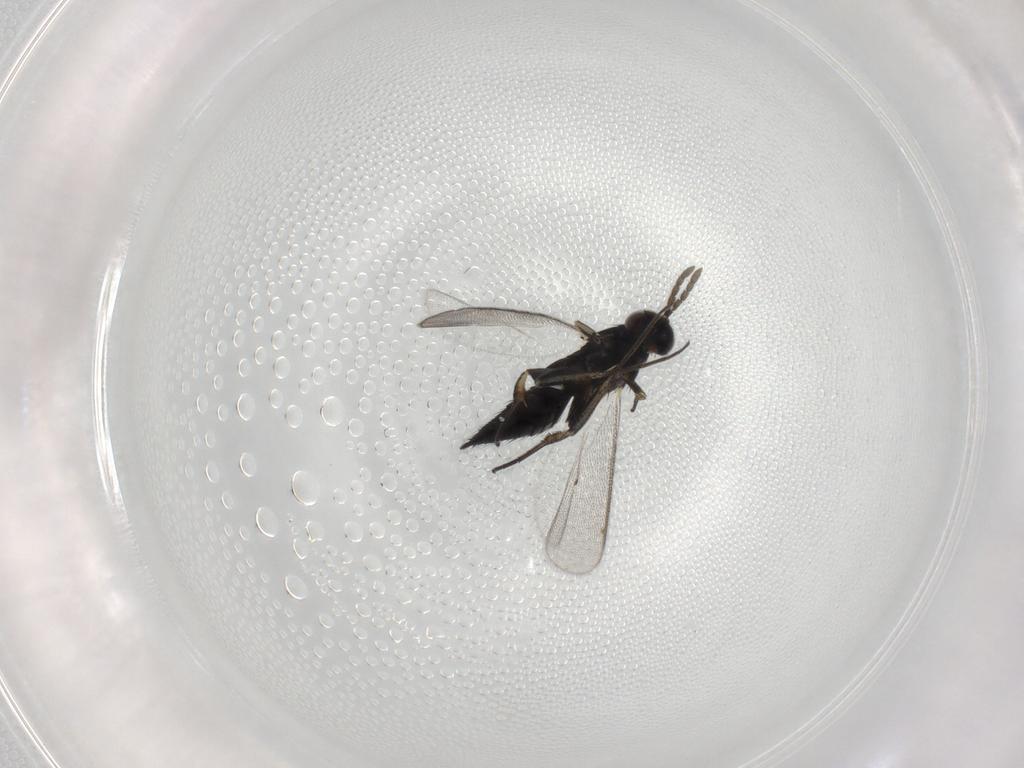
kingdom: Animalia
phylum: Arthropoda
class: Insecta
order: Hymenoptera
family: Eulophidae
